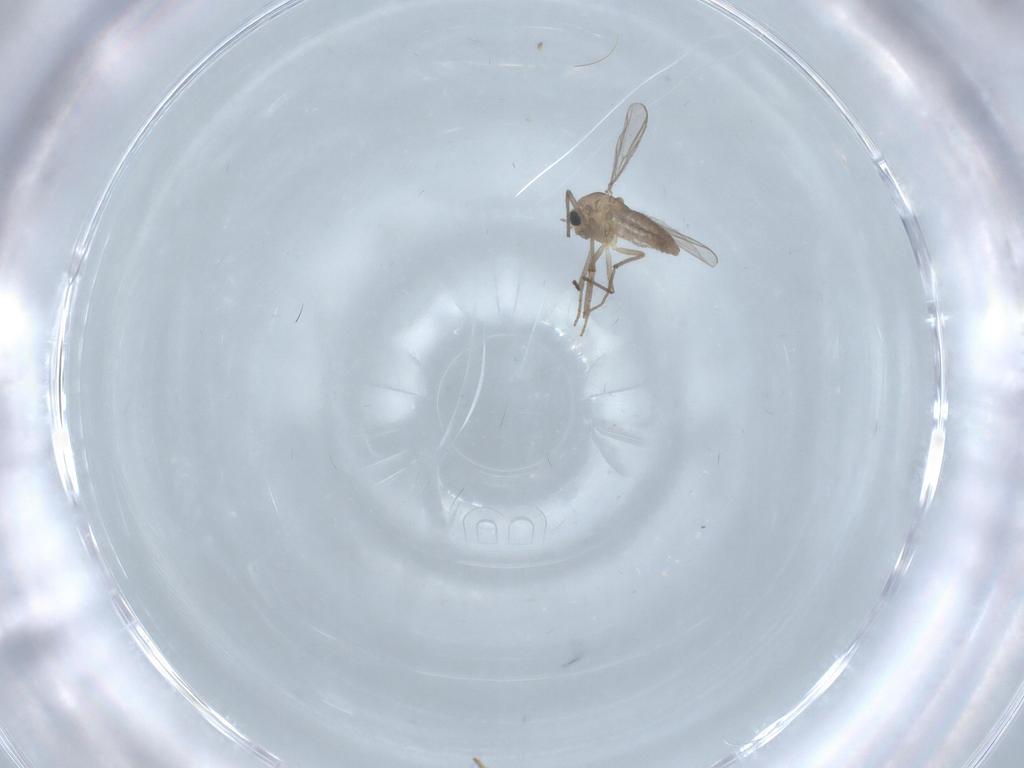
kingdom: Animalia
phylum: Arthropoda
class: Insecta
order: Diptera
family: Chironomidae
